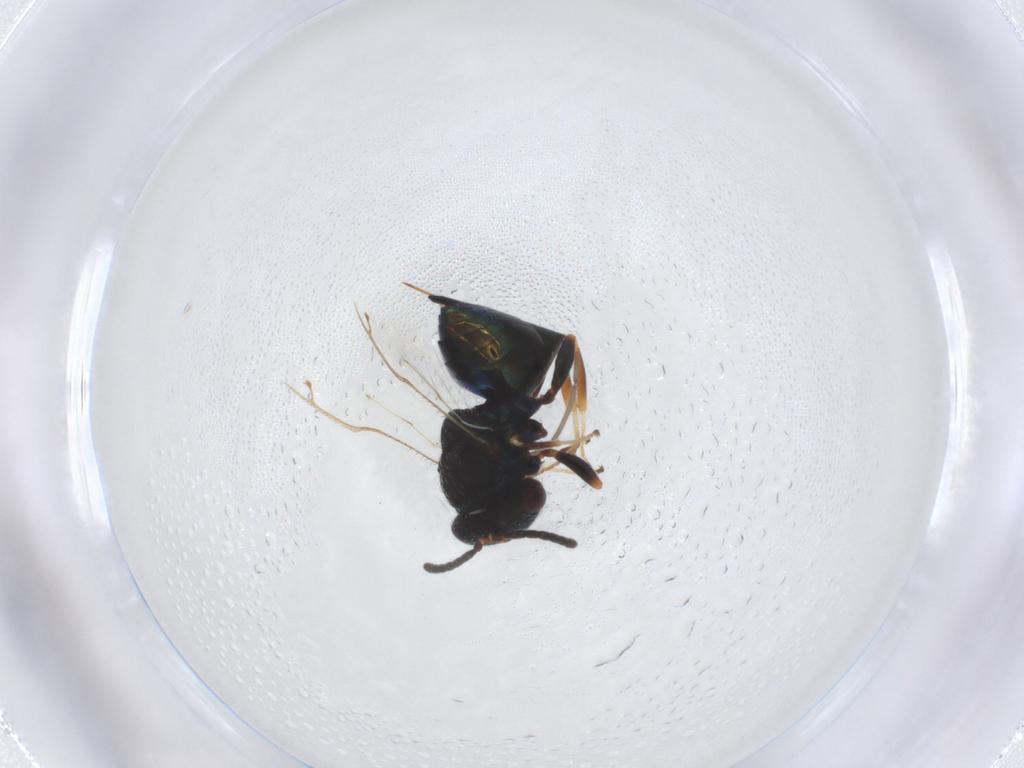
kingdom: Animalia
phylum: Arthropoda
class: Insecta
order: Hymenoptera
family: Pteromalidae
